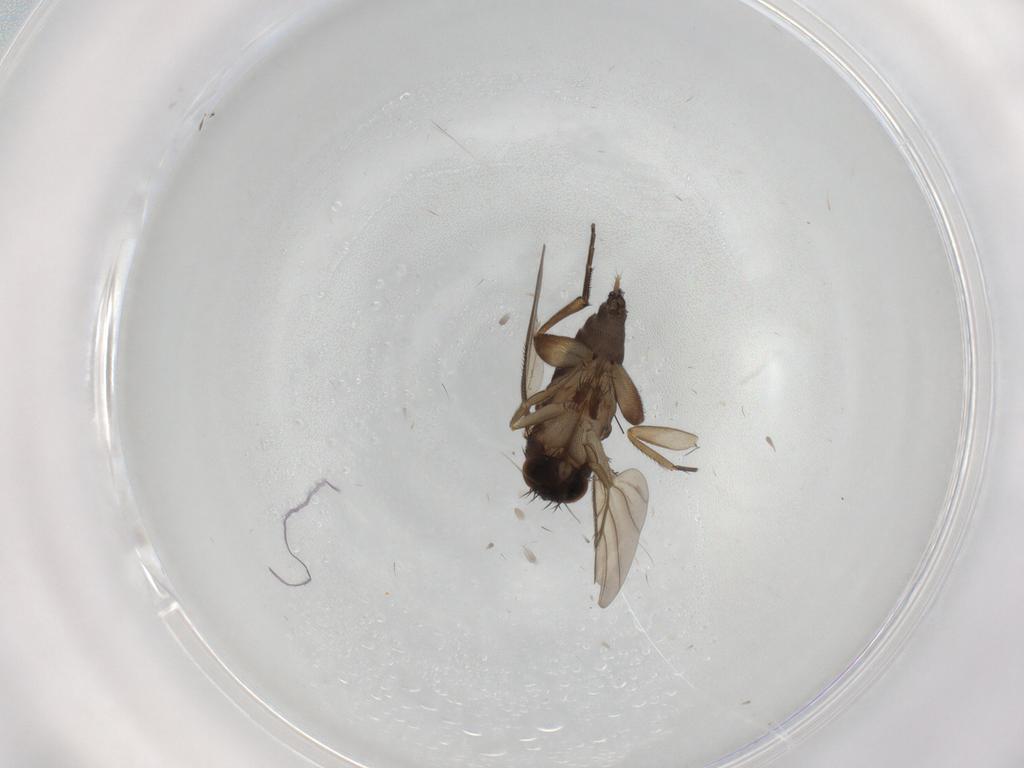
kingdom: Animalia
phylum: Arthropoda
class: Insecta
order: Diptera
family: Phoridae
